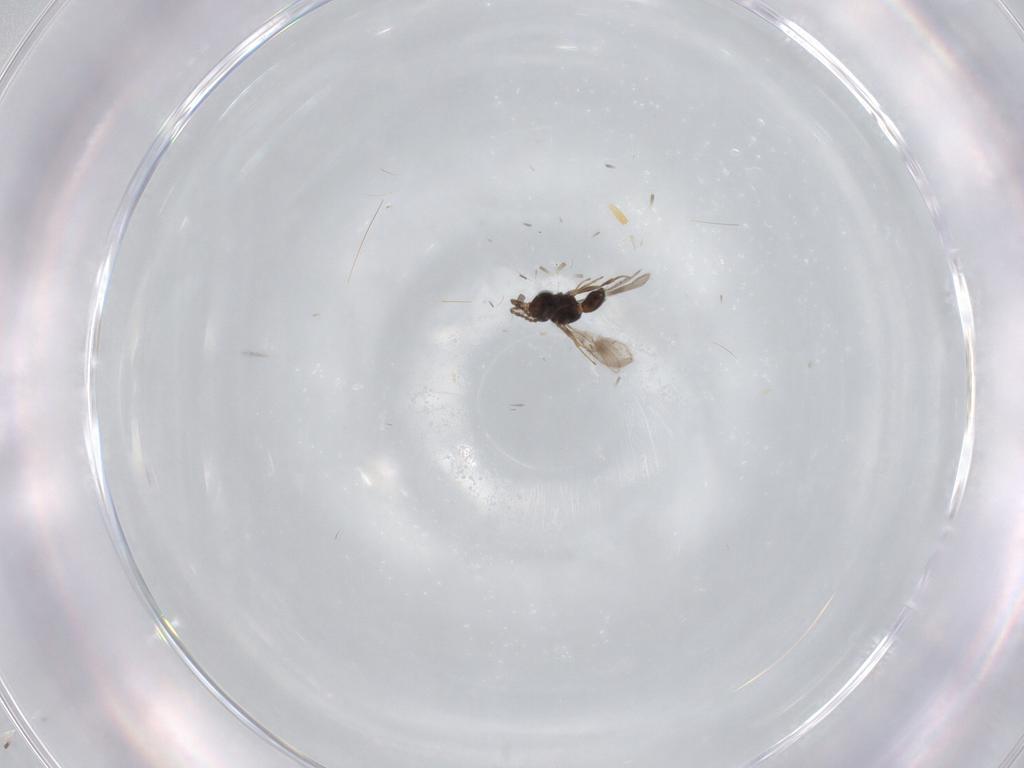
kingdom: Animalia
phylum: Arthropoda
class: Insecta
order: Hymenoptera
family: Scelionidae
